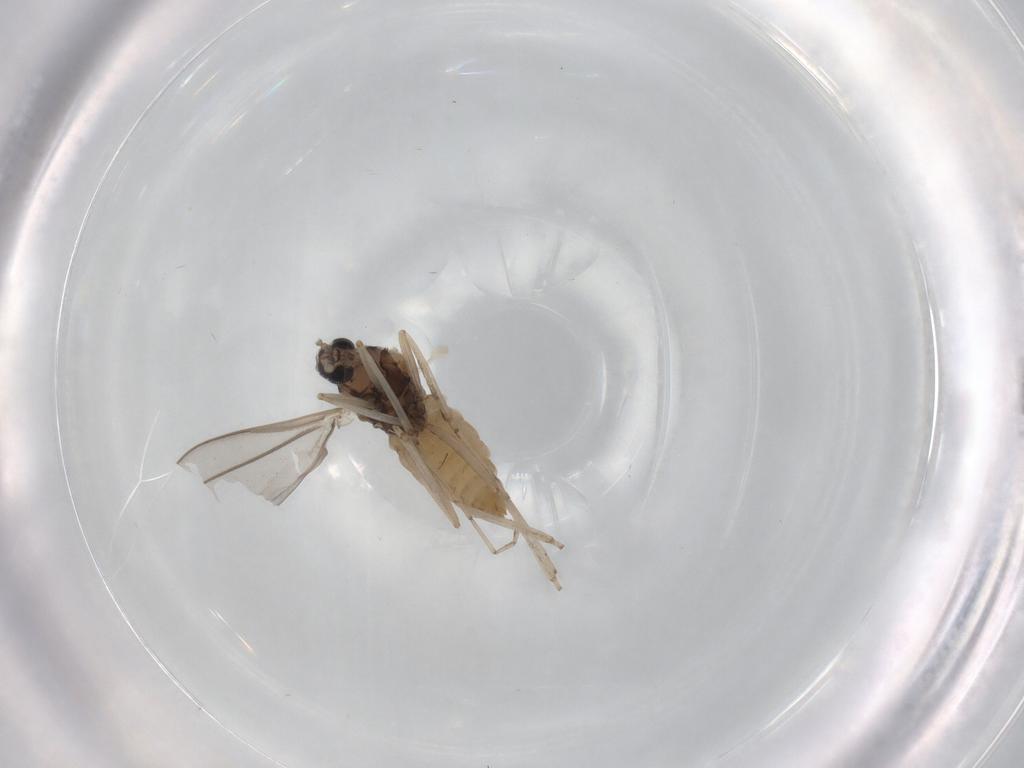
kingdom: Animalia
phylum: Arthropoda
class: Insecta
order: Diptera
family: Cecidomyiidae
